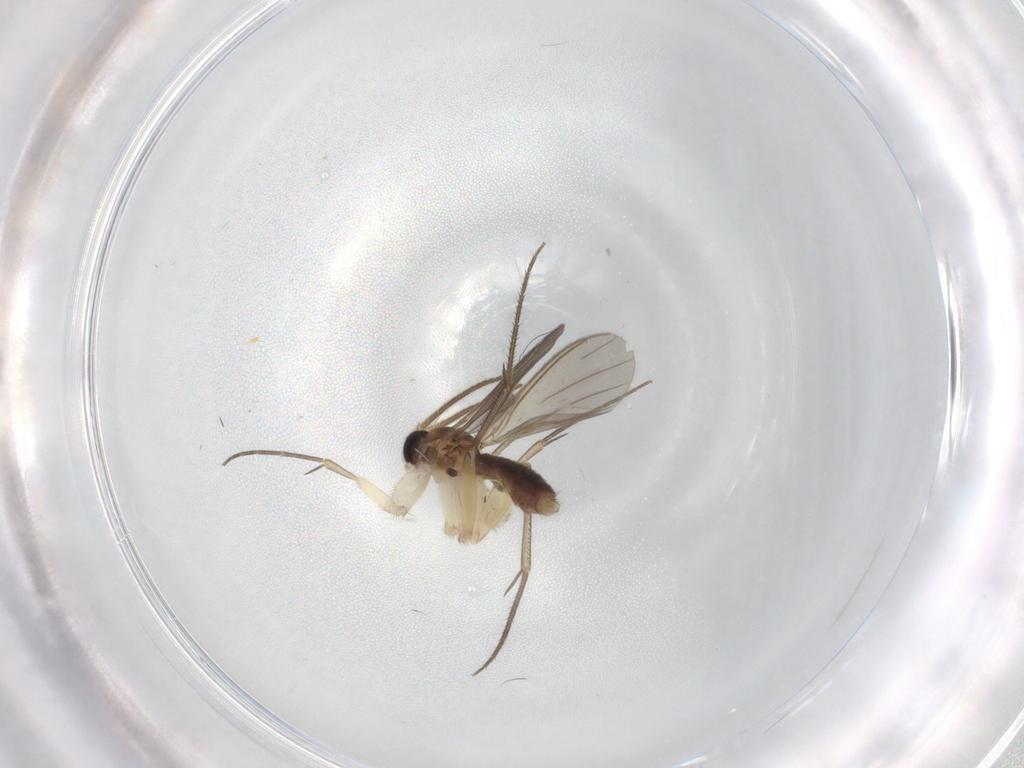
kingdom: Animalia
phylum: Arthropoda
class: Insecta
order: Diptera
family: Mycetophilidae
